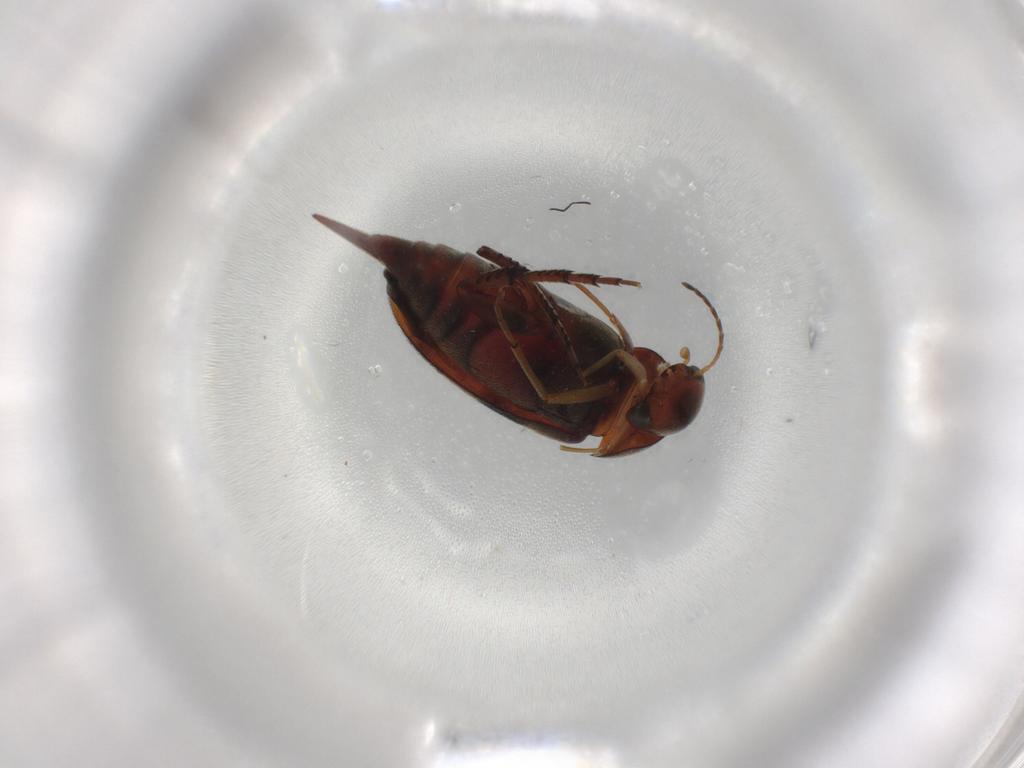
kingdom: Animalia
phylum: Arthropoda
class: Insecta
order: Coleoptera
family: Mordellidae
